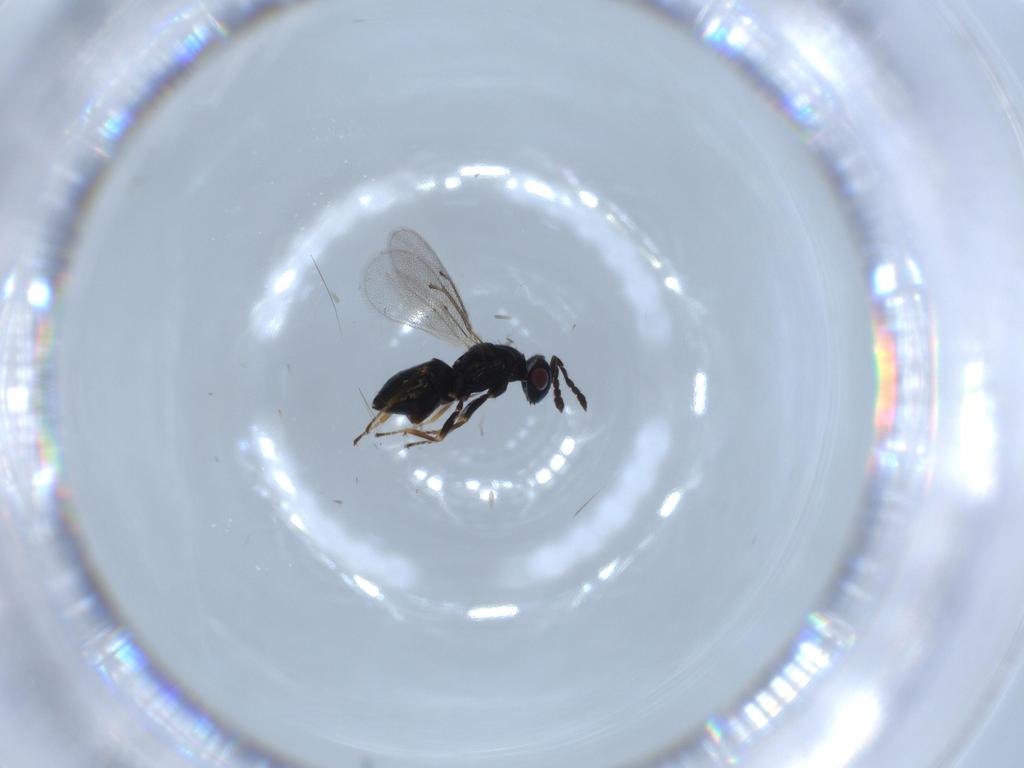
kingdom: Animalia
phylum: Arthropoda
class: Insecta
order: Hymenoptera
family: Eulophidae
